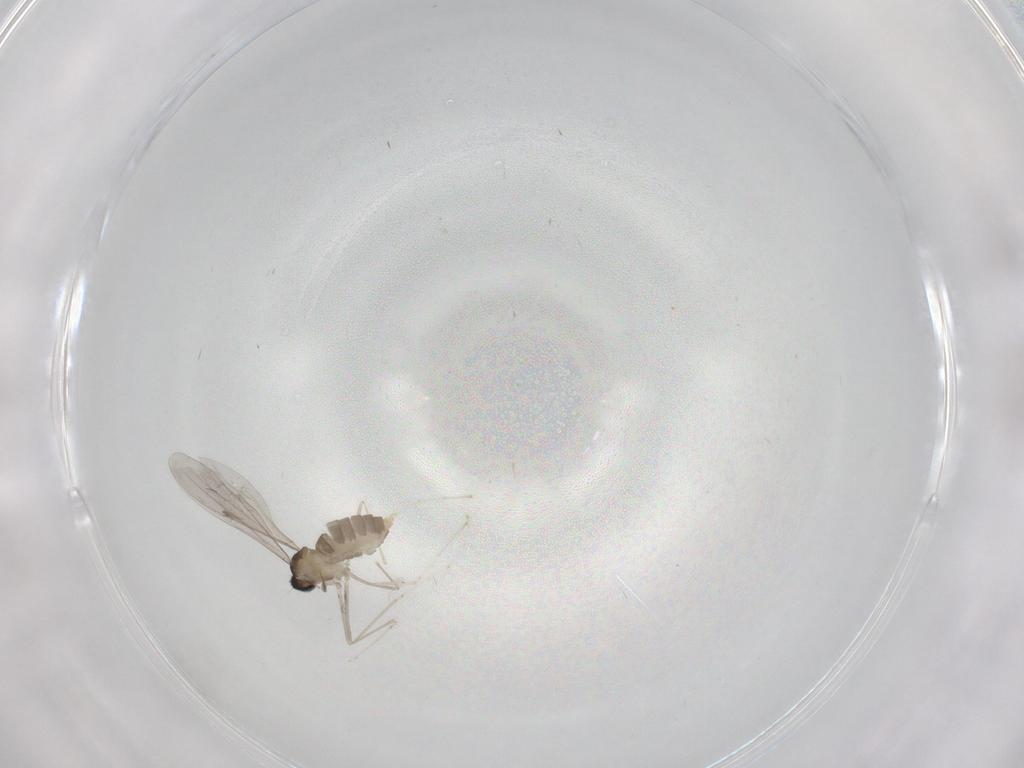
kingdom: Animalia
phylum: Arthropoda
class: Insecta
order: Diptera
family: Cecidomyiidae
